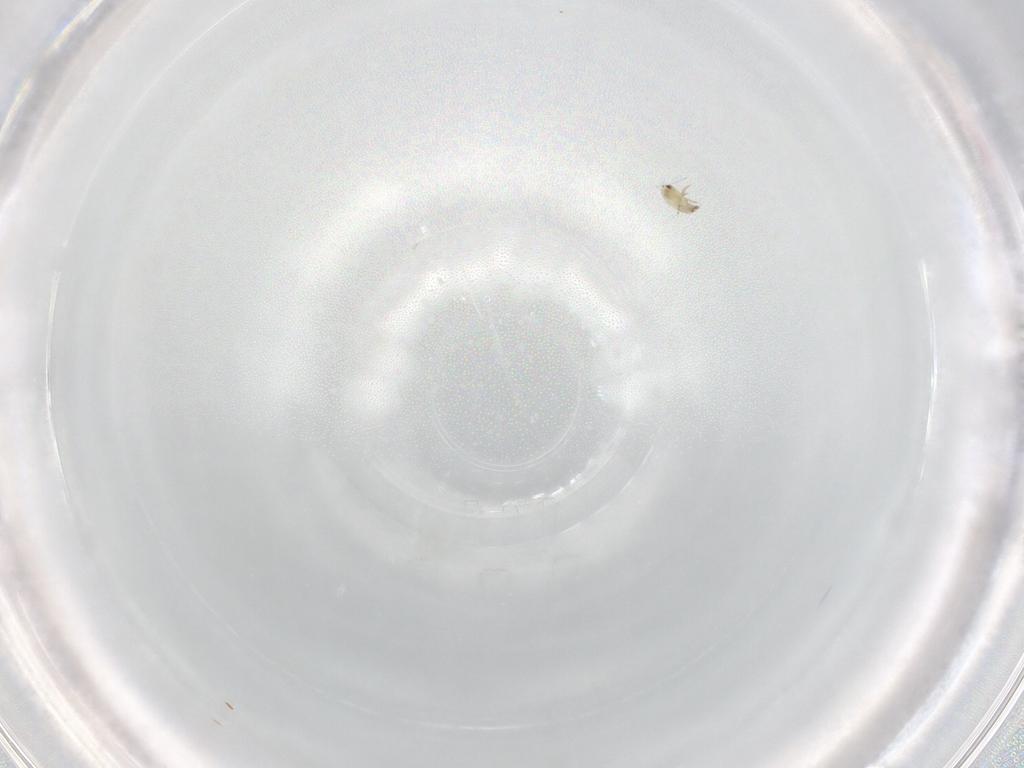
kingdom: Animalia
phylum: Arthropoda
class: Arachnida
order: Sarcoptiformes
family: Humerobatidae
